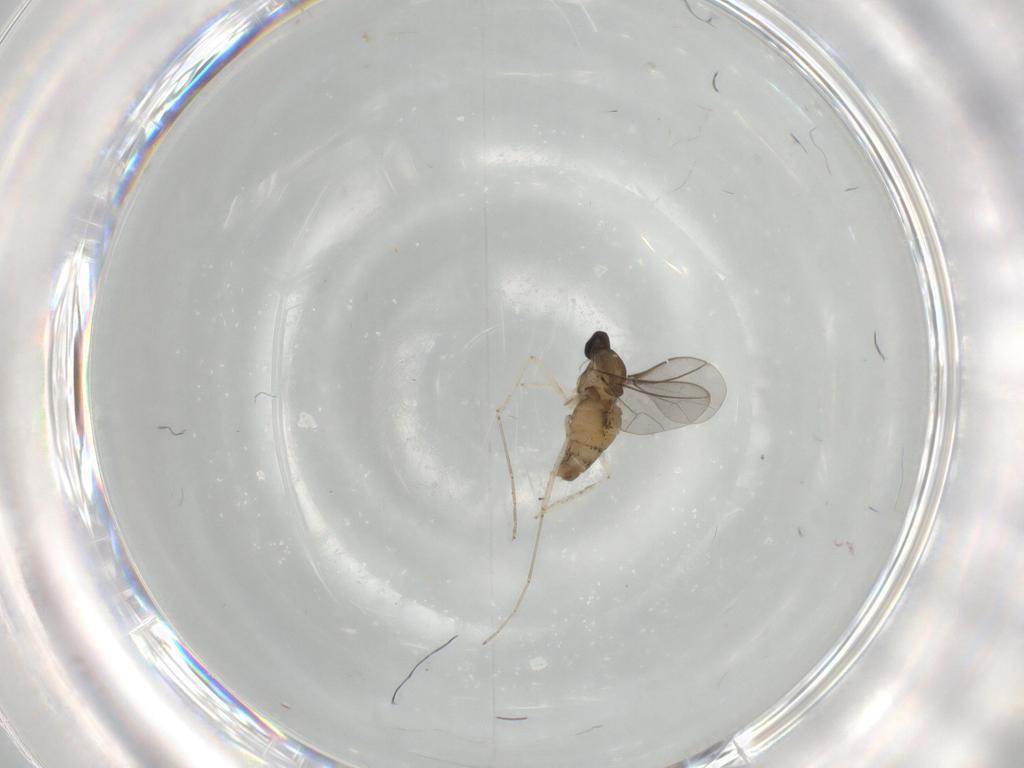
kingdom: Animalia
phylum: Arthropoda
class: Insecta
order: Diptera
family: Cecidomyiidae
